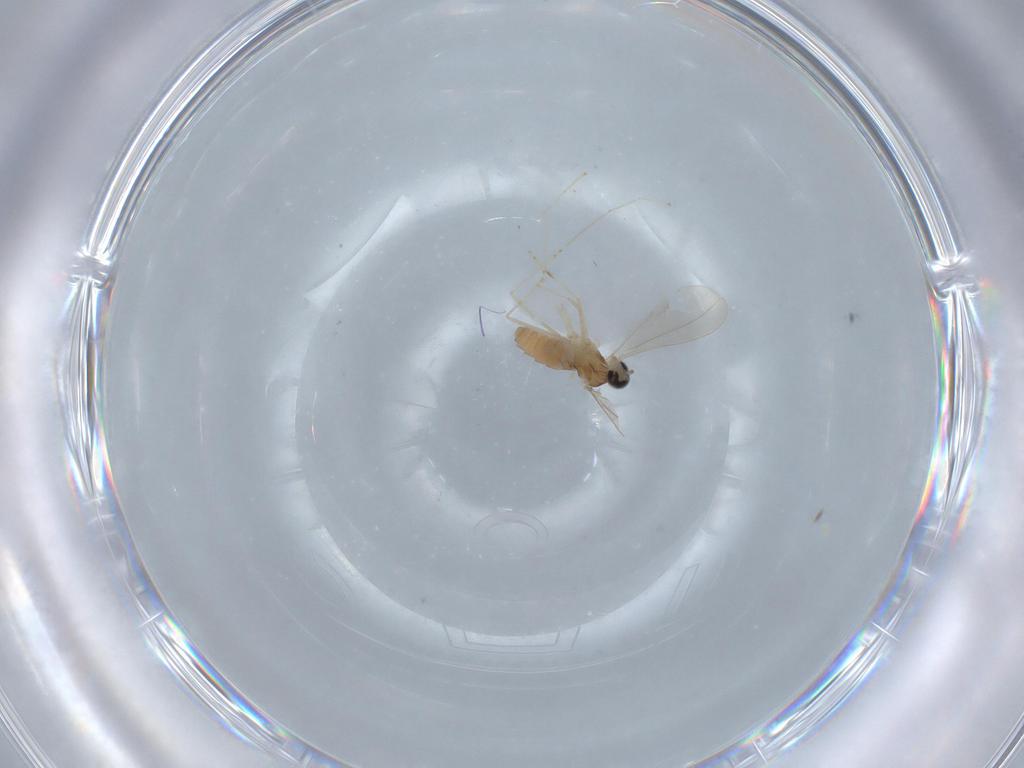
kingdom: Animalia
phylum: Arthropoda
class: Insecta
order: Diptera
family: Cecidomyiidae
